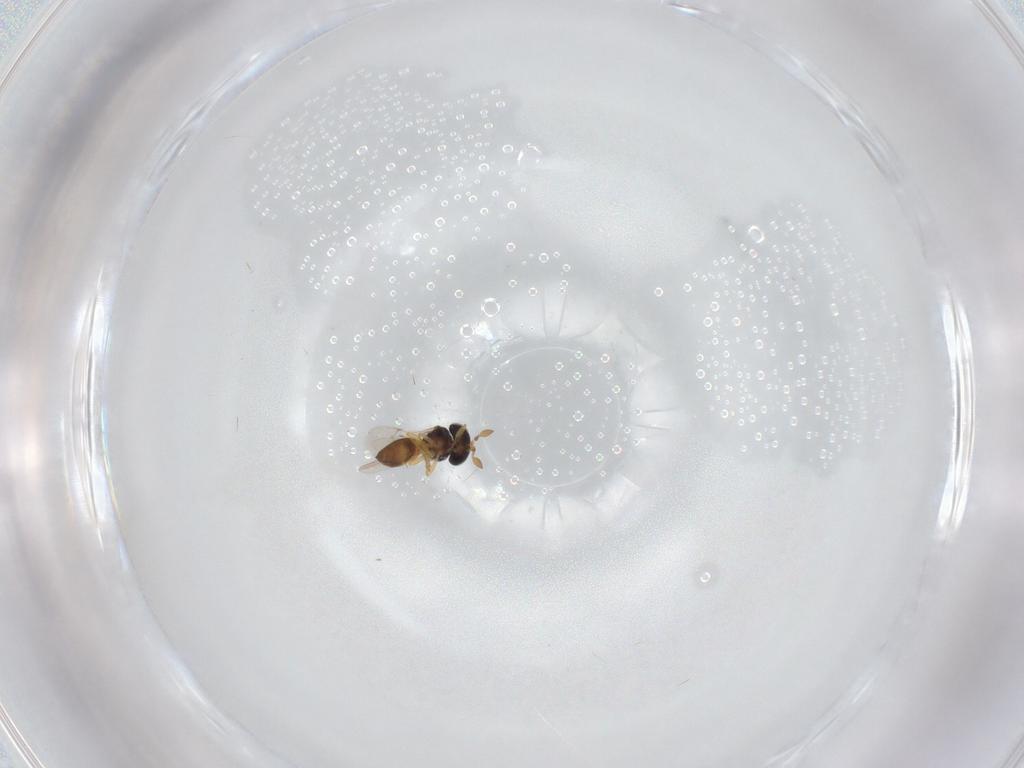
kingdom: Animalia
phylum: Arthropoda
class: Insecta
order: Hymenoptera
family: Scelionidae
